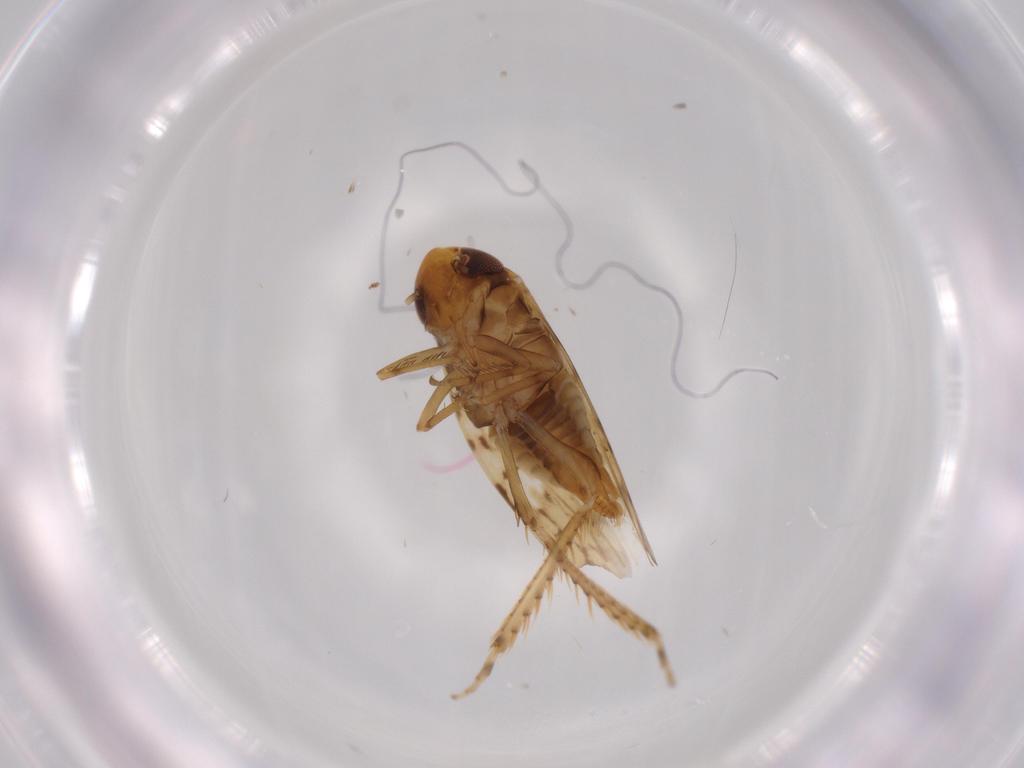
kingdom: Animalia
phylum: Arthropoda
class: Insecta
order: Hemiptera
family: Cicadellidae
